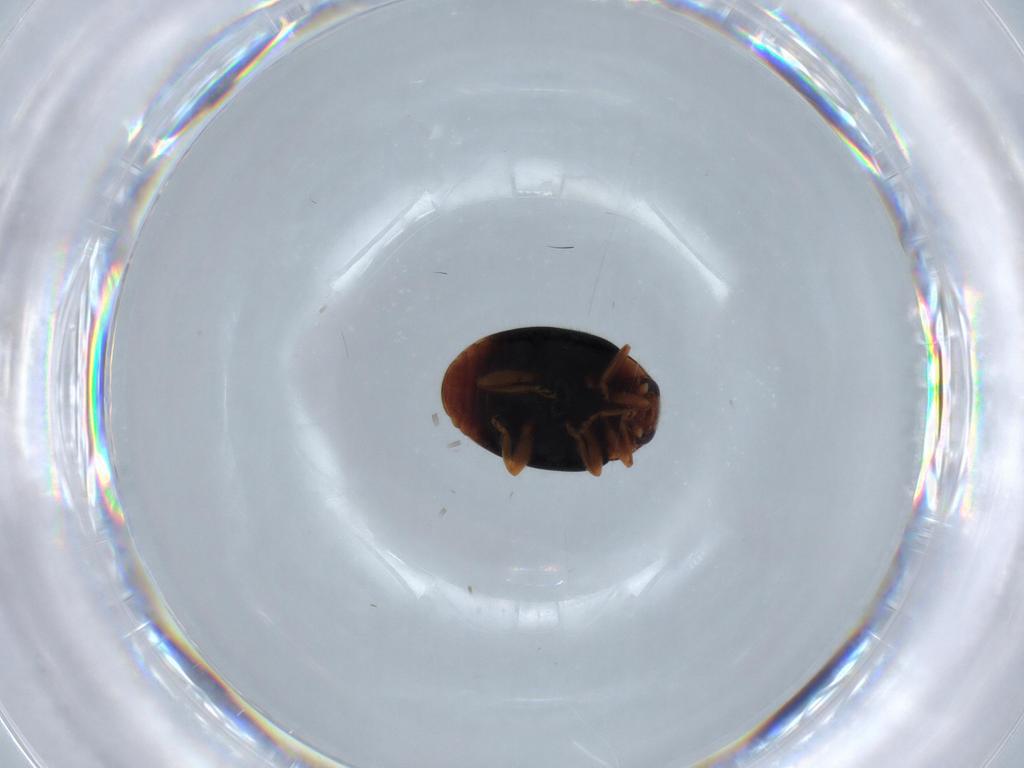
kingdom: Animalia
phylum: Arthropoda
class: Insecta
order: Coleoptera
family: Coccinellidae
